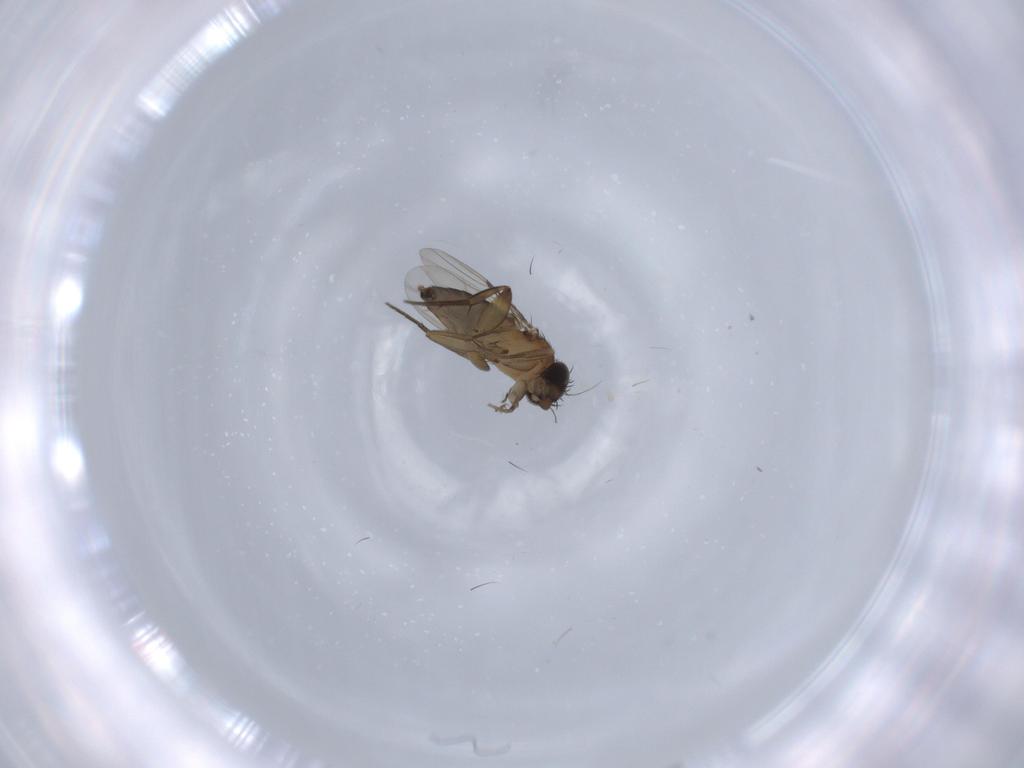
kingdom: Animalia
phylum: Arthropoda
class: Insecta
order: Diptera
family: Phoridae
